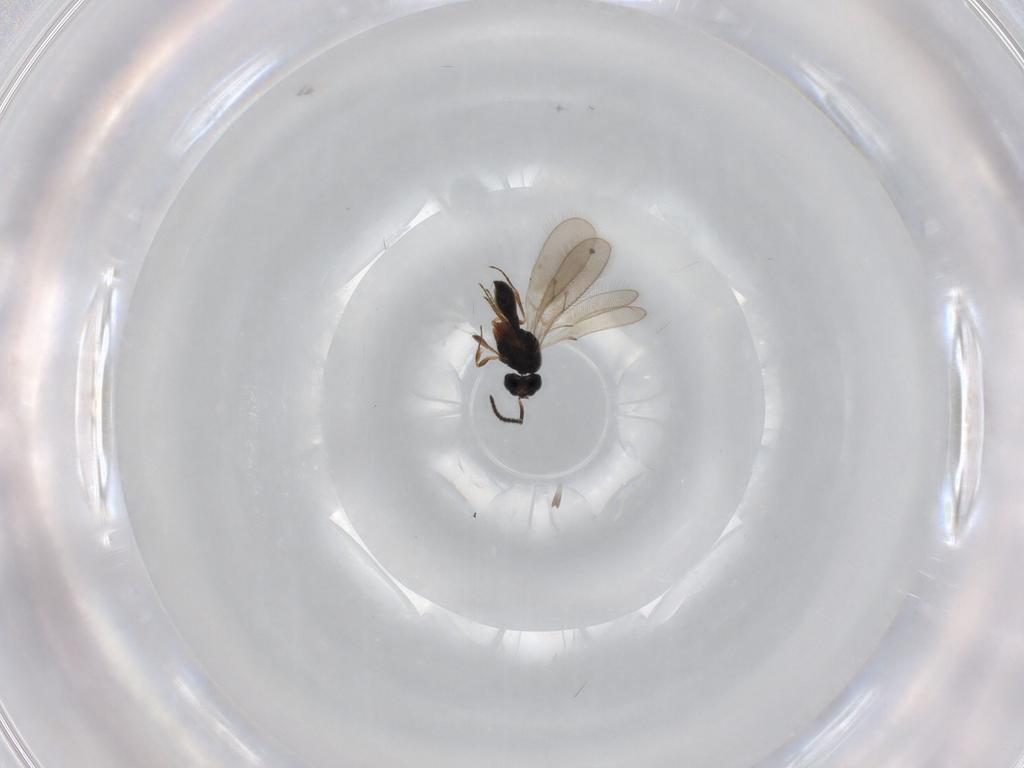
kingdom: Animalia
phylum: Arthropoda
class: Insecta
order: Hymenoptera
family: Scelionidae
